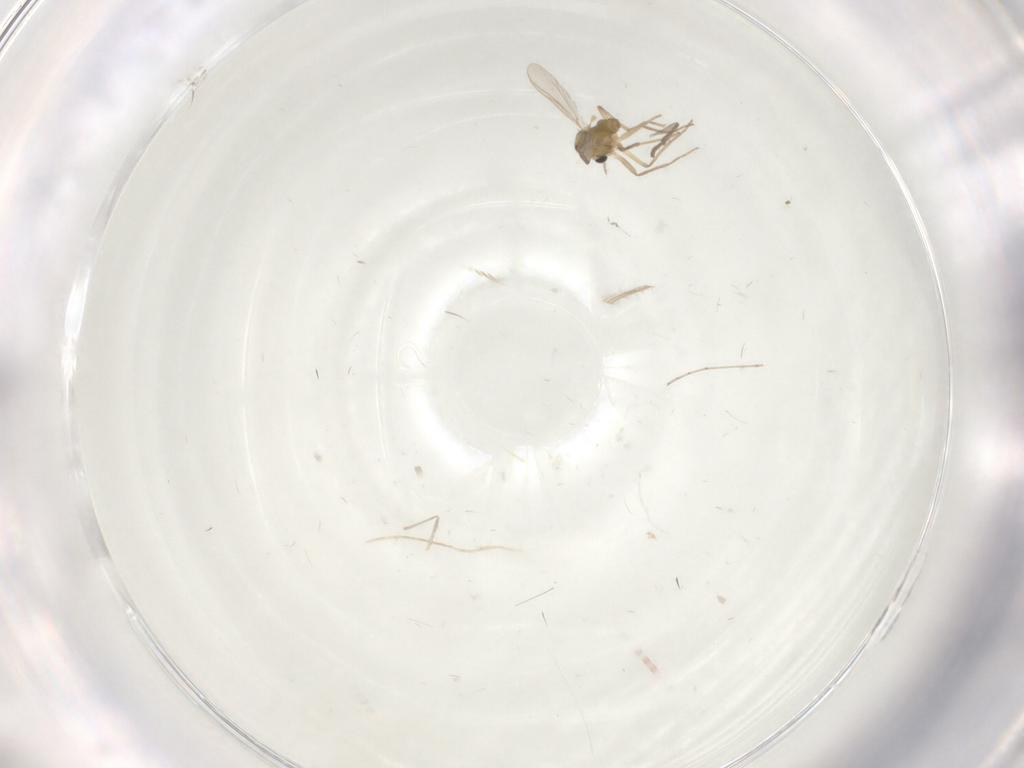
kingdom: Animalia
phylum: Arthropoda
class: Insecta
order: Diptera
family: Chironomidae
